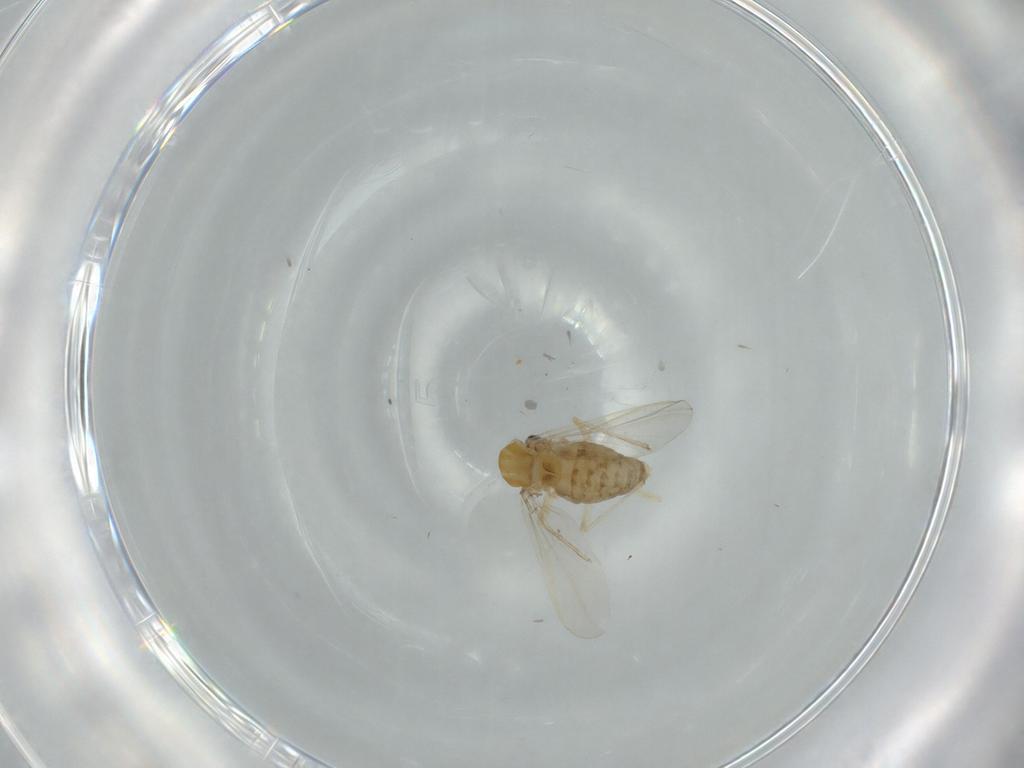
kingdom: Animalia
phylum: Arthropoda
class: Insecta
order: Diptera
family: Chironomidae
